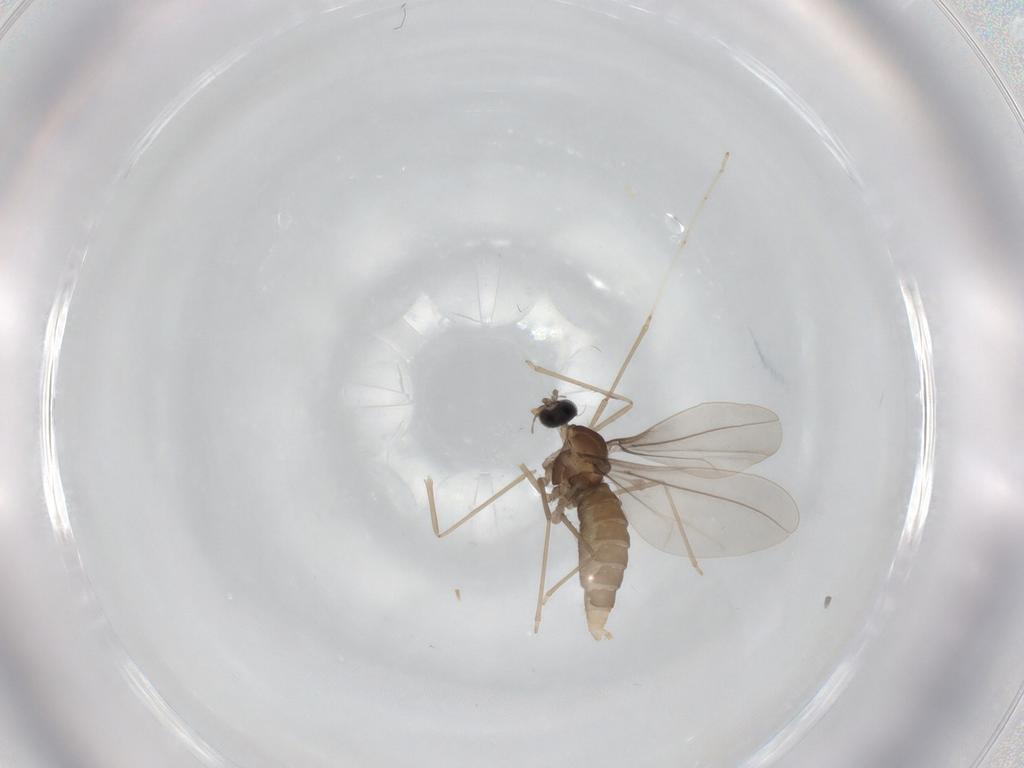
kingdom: Animalia
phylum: Arthropoda
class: Insecta
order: Diptera
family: Cecidomyiidae
